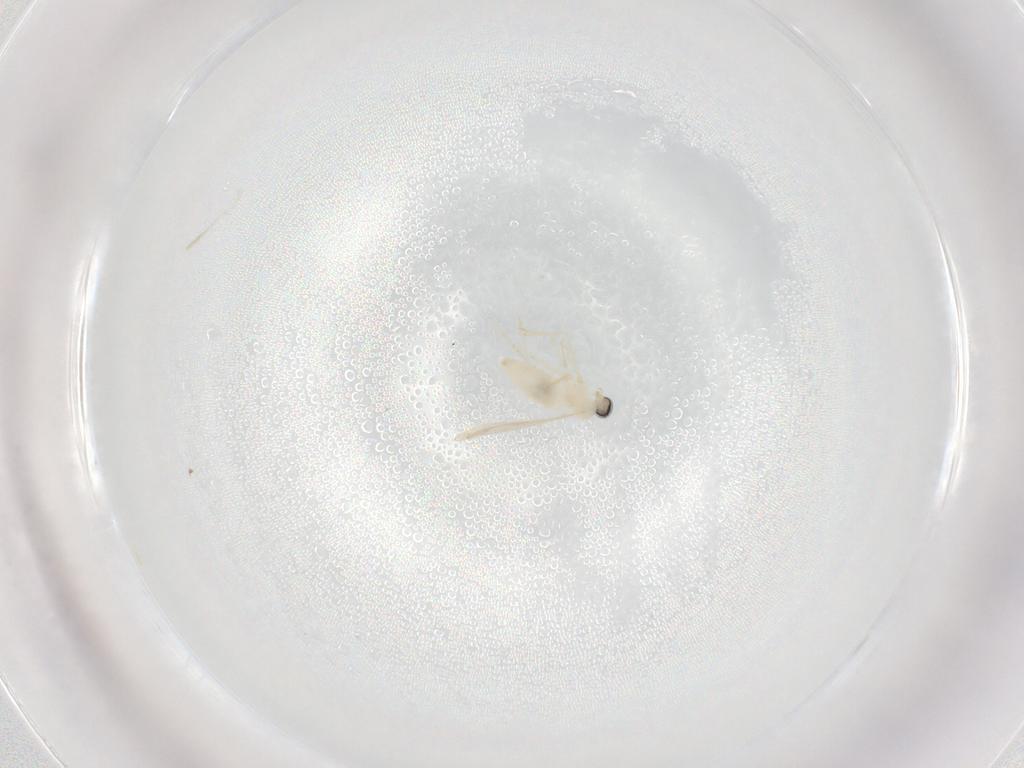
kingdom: Animalia
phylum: Arthropoda
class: Insecta
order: Diptera
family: Cecidomyiidae
